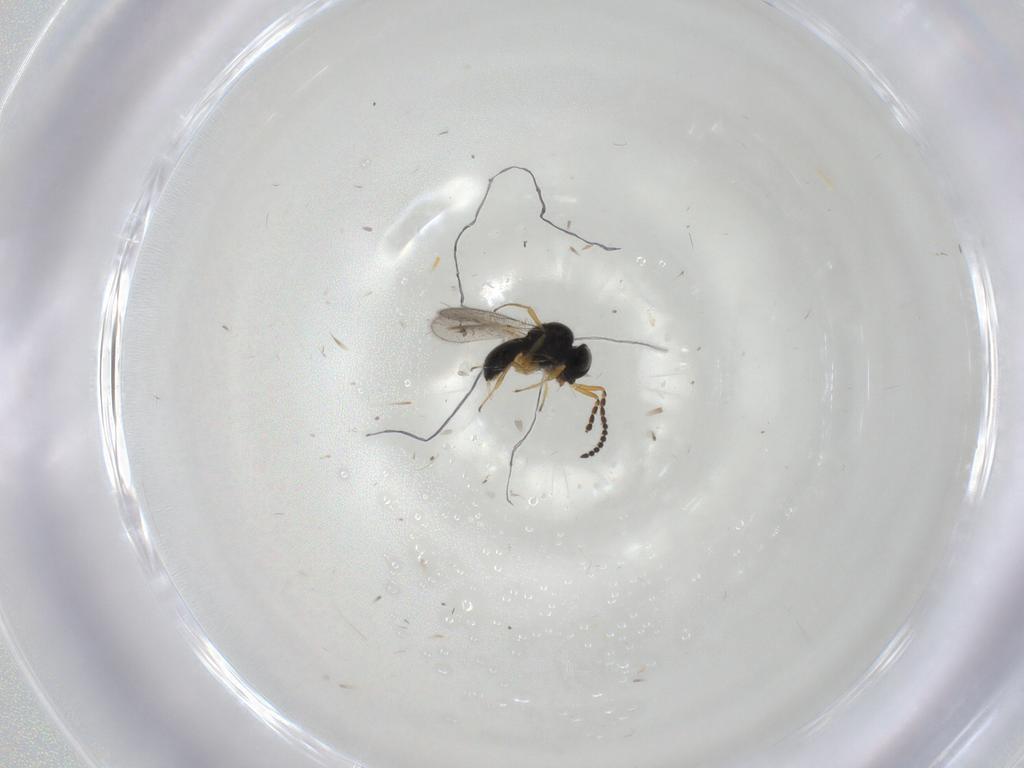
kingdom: Animalia
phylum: Arthropoda
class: Insecta
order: Hymenoptera
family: Scelionidae
